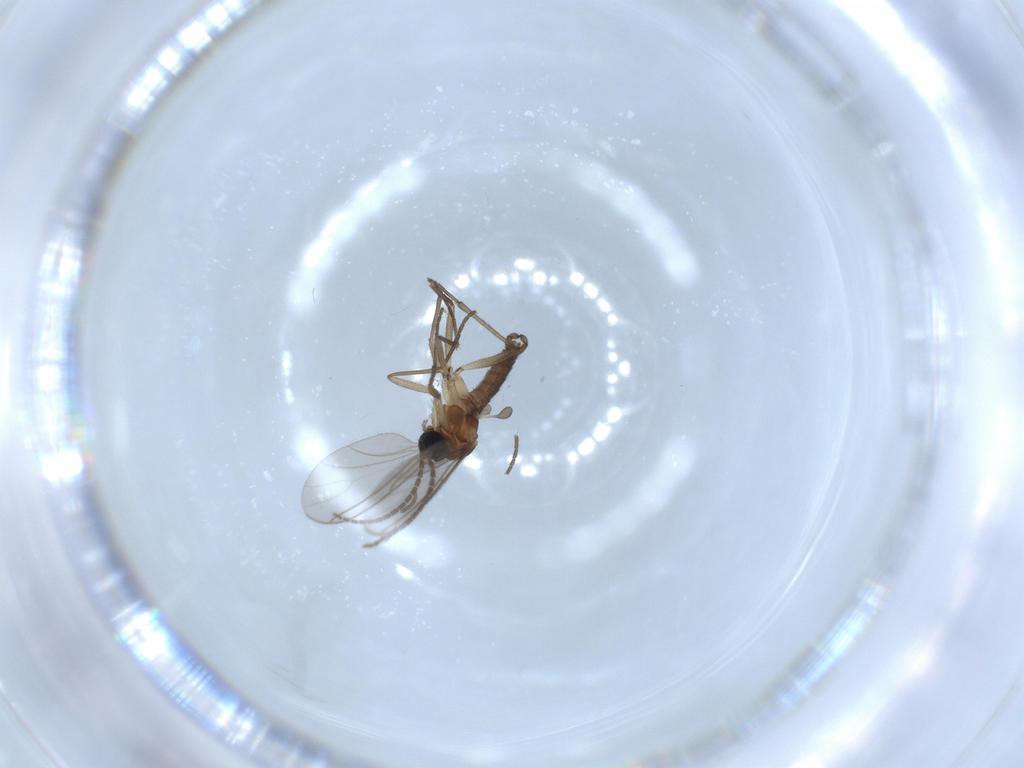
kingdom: Animalia
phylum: Arthropoda
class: Insecta
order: Diptera
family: Sciaridae
